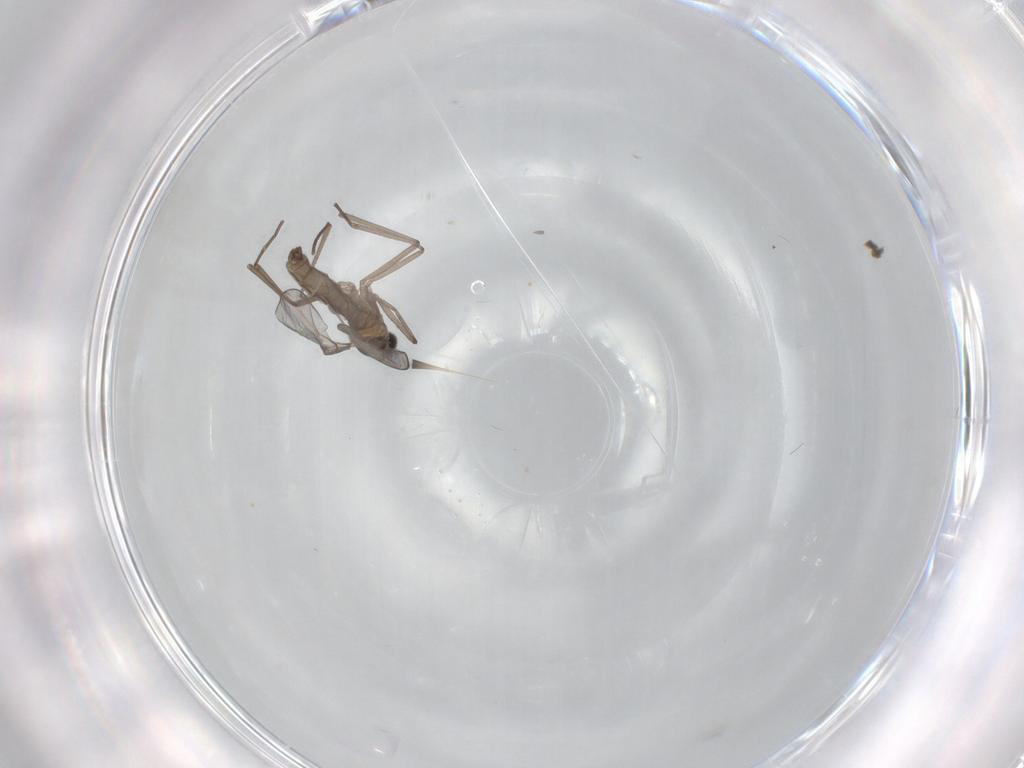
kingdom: Animalia
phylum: Arthropoda
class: Insecta
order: Diptera
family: Cecidomyiidae
